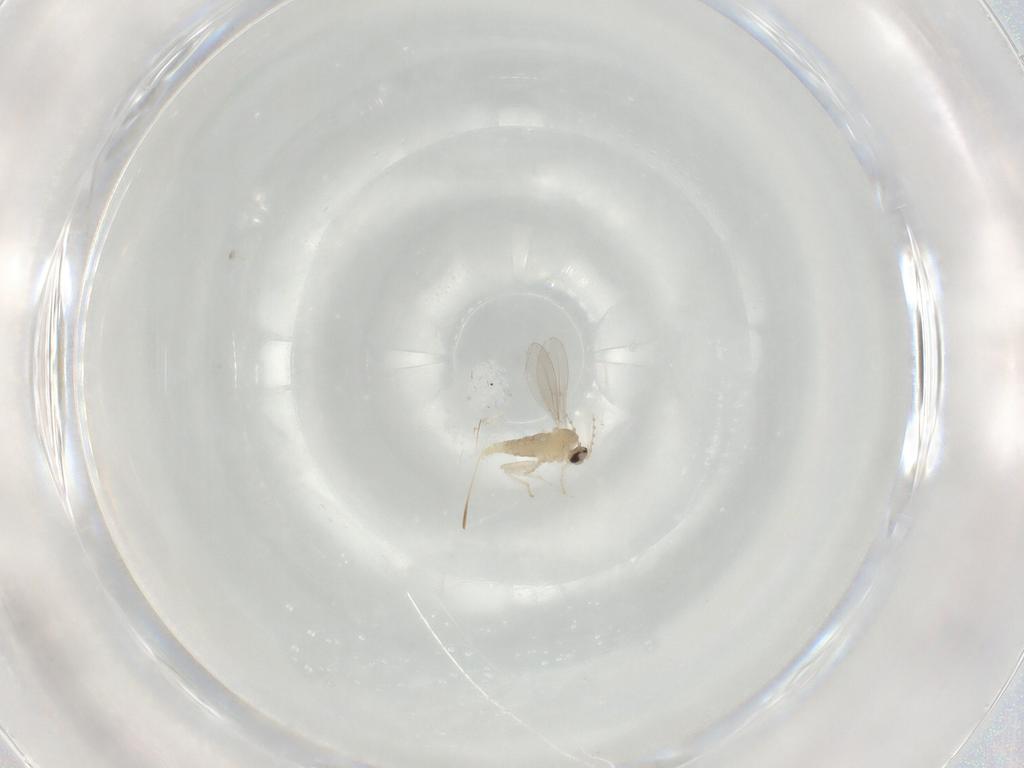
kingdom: Animalia
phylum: Arthropoda
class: Insecta
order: Diptera
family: Cecidomyiidae
